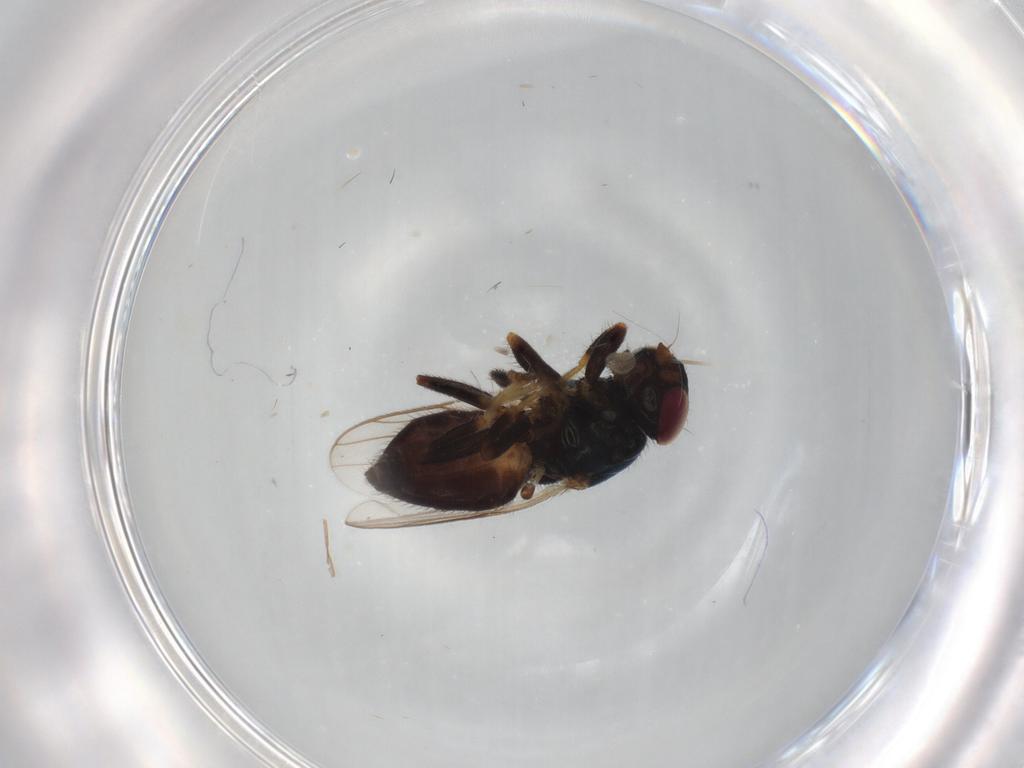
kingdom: Animalia
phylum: Arthropoda
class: Insecta
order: Diptera
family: Chloropidae
